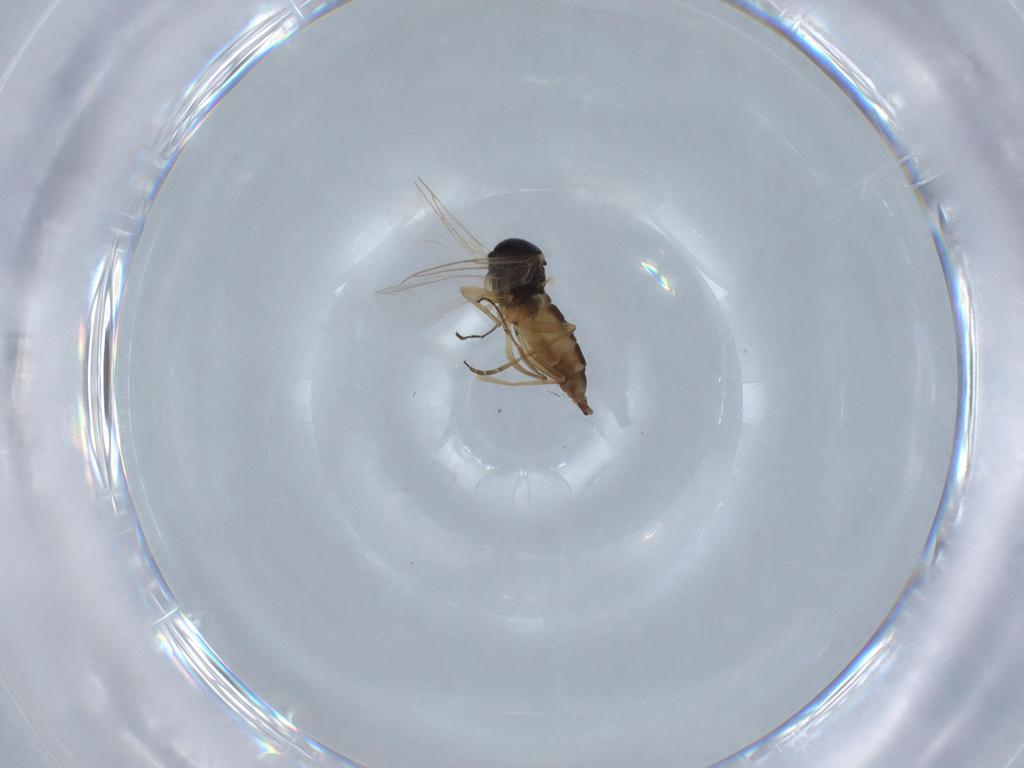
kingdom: Animalia
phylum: Arthropoda
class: Insecta
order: Diptera
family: Sciaridae
